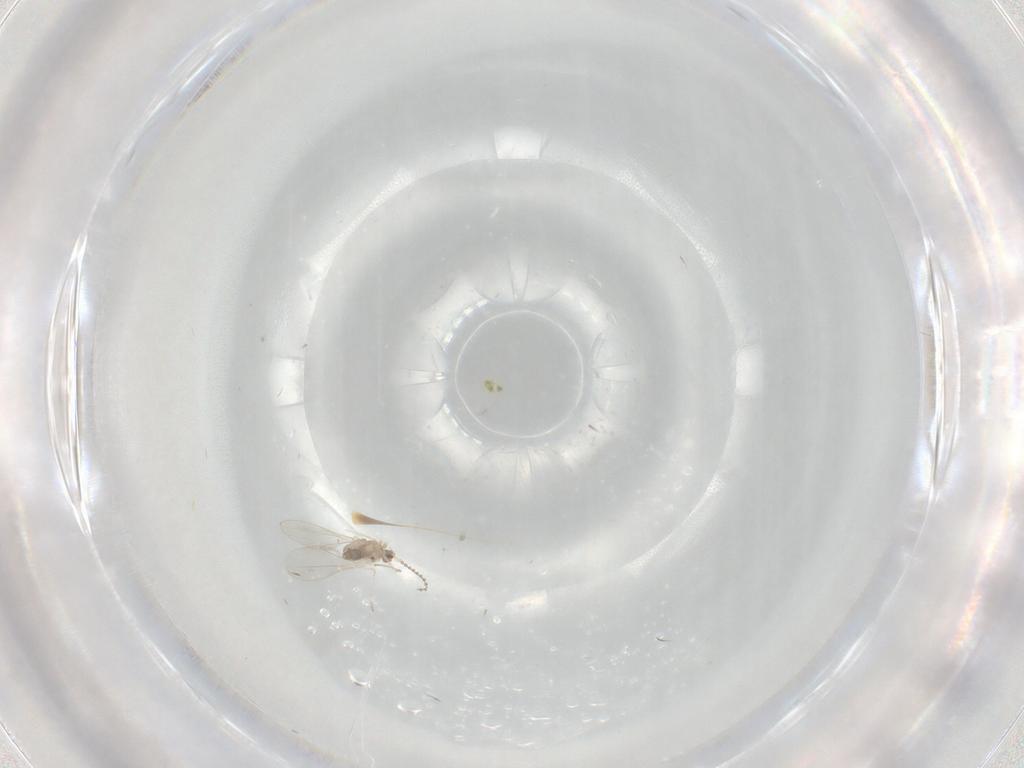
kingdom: Animalia
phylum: Arthropoda
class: Insecta
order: Diptera
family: Cecidomyiidae
